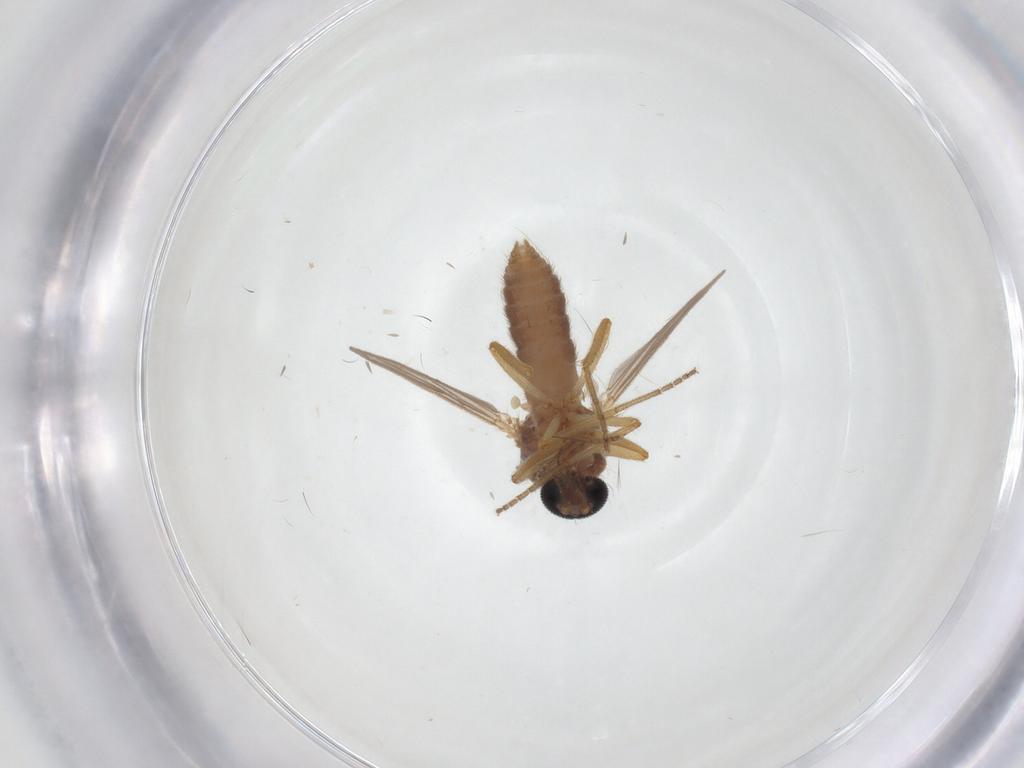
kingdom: Animalia
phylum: Arthropoda
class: Insecta
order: Diptera
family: Ceratopogonidae
